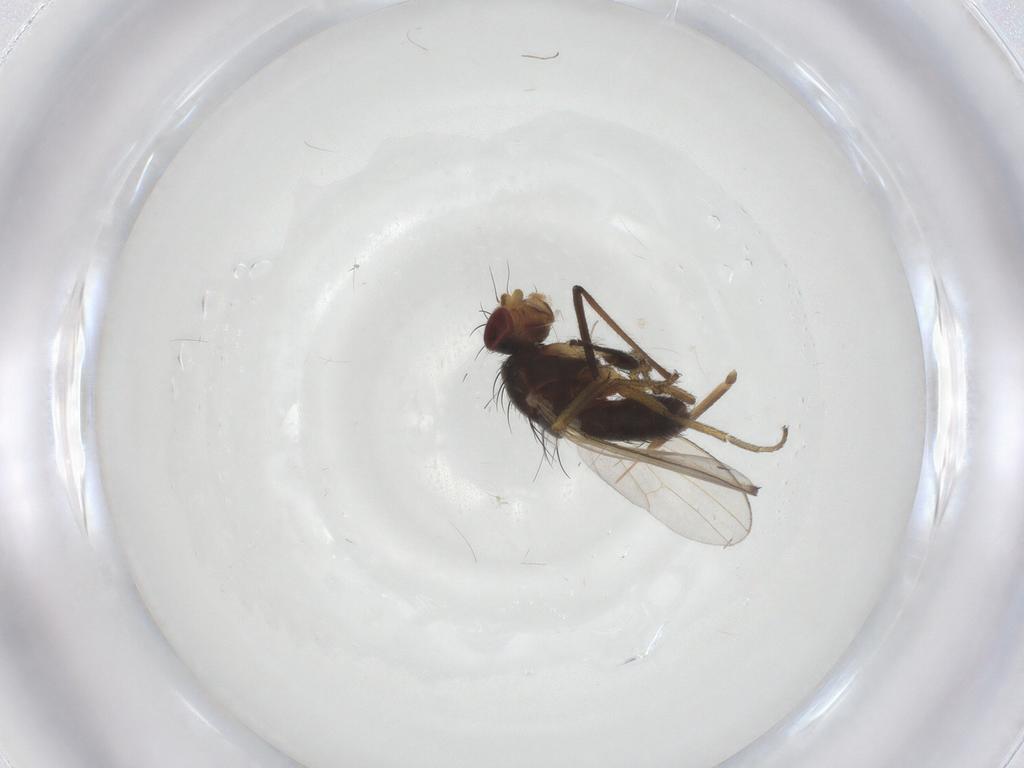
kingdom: Animalia
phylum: Arthropoda
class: Insecta
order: Diptera
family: Heleomyzidae
